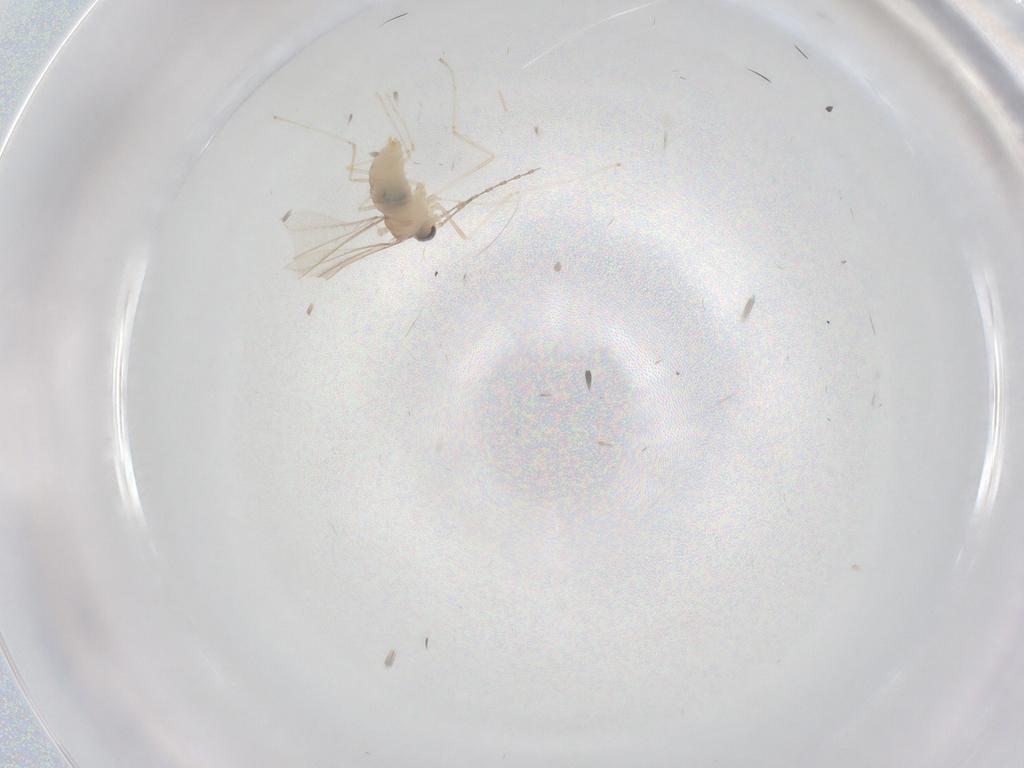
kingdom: Animalia
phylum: Arthropoda
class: Insecta
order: Diptera
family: Cecidomyiidae
